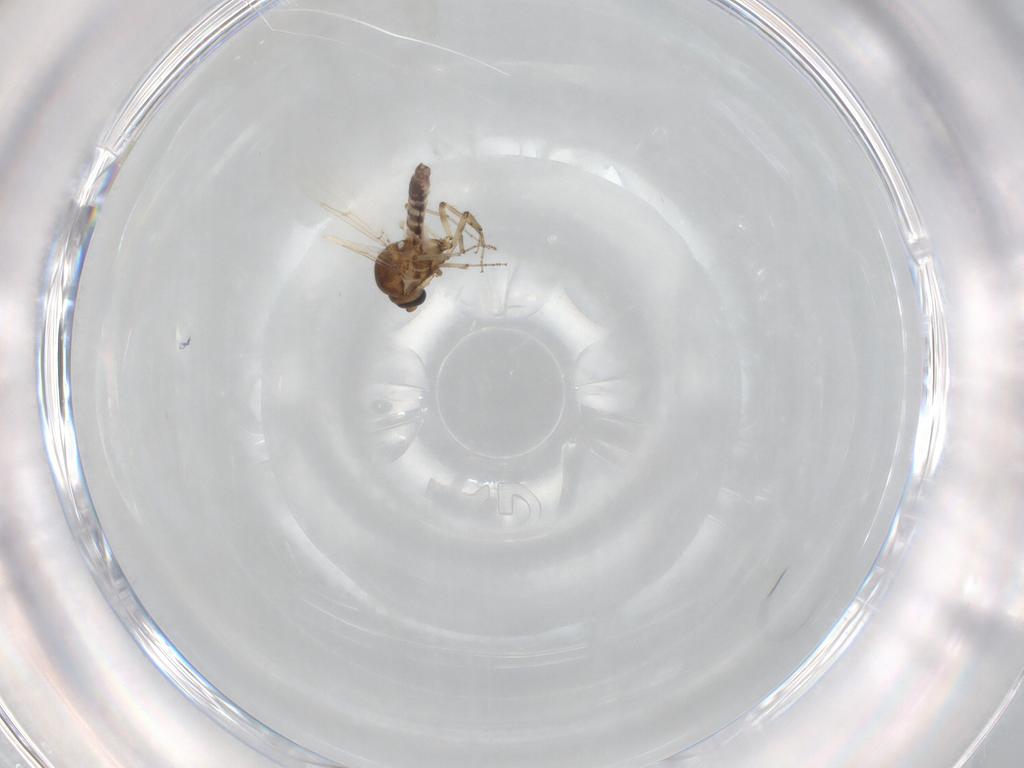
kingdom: Animalia
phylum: Arthropoda
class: Insecta
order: Diptera
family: Ceratopogonidae
